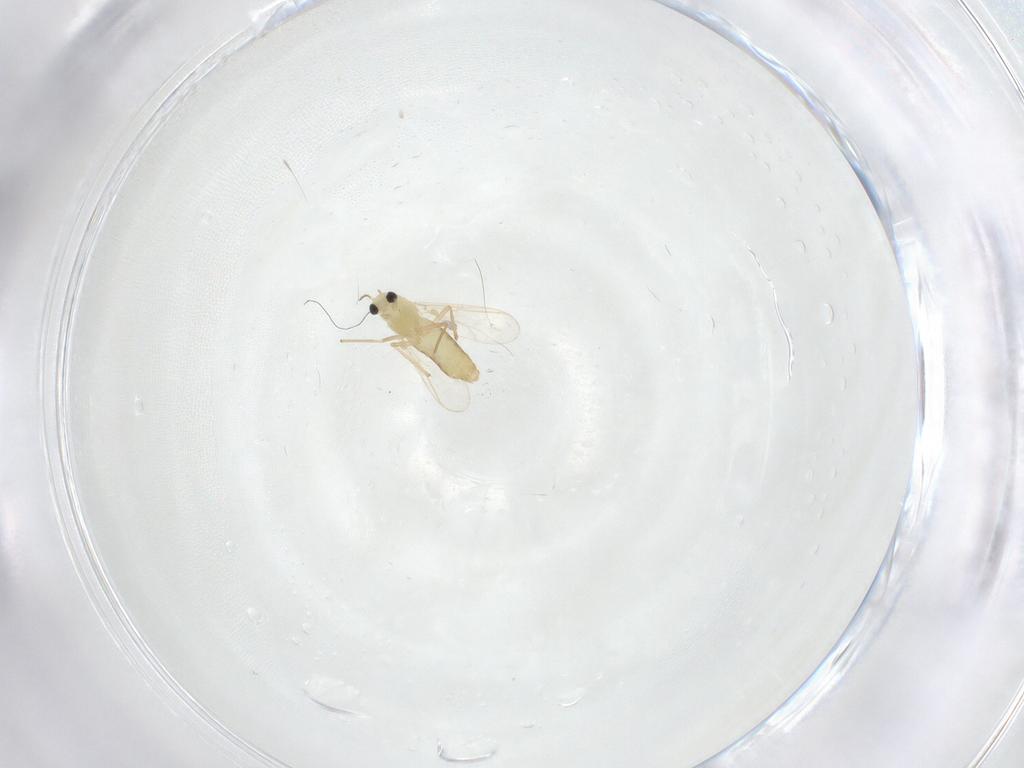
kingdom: Animalia
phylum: Arthropoda
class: Insecta
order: Diptera
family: Chironomidae
